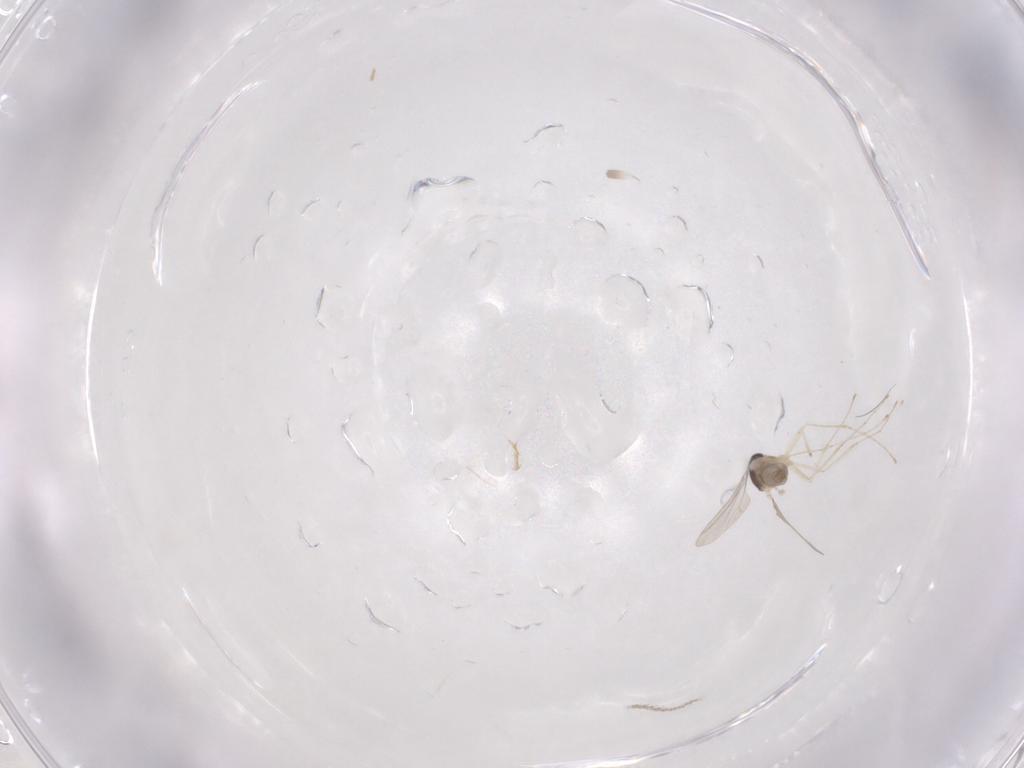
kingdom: Animalia
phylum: Arthropoda
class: Insecta
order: Diptera
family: Cecidomyiidae
